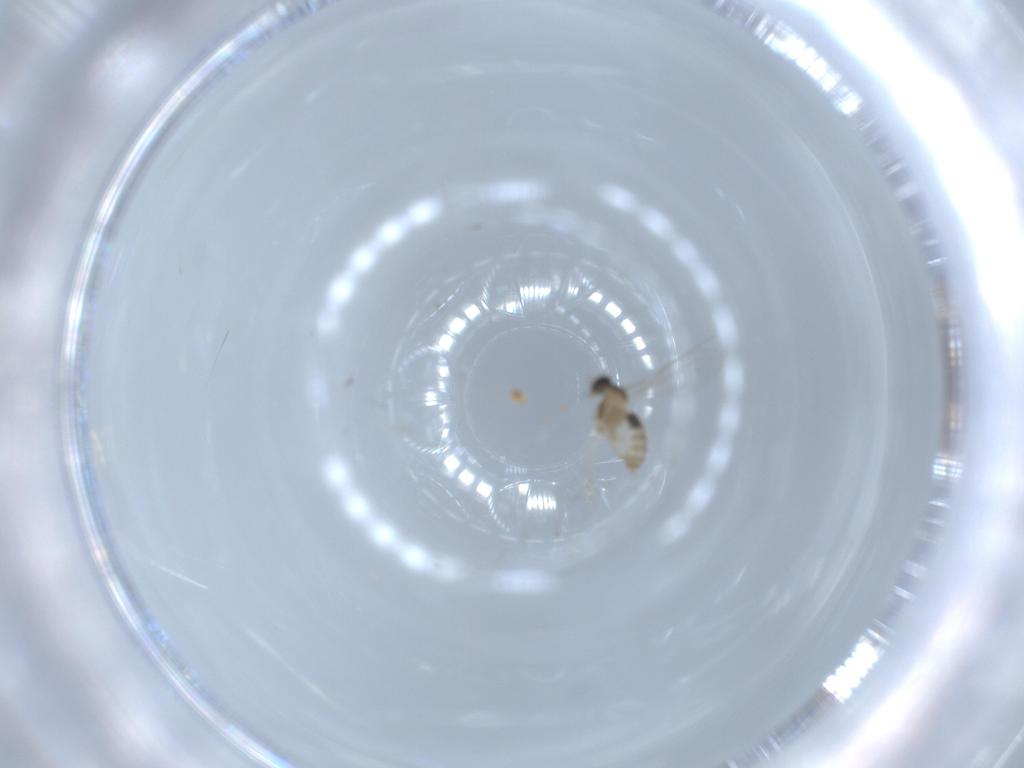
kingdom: Animalia
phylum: Arthropoda
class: Insecta
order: Diptera
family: Cecidomyiidae
